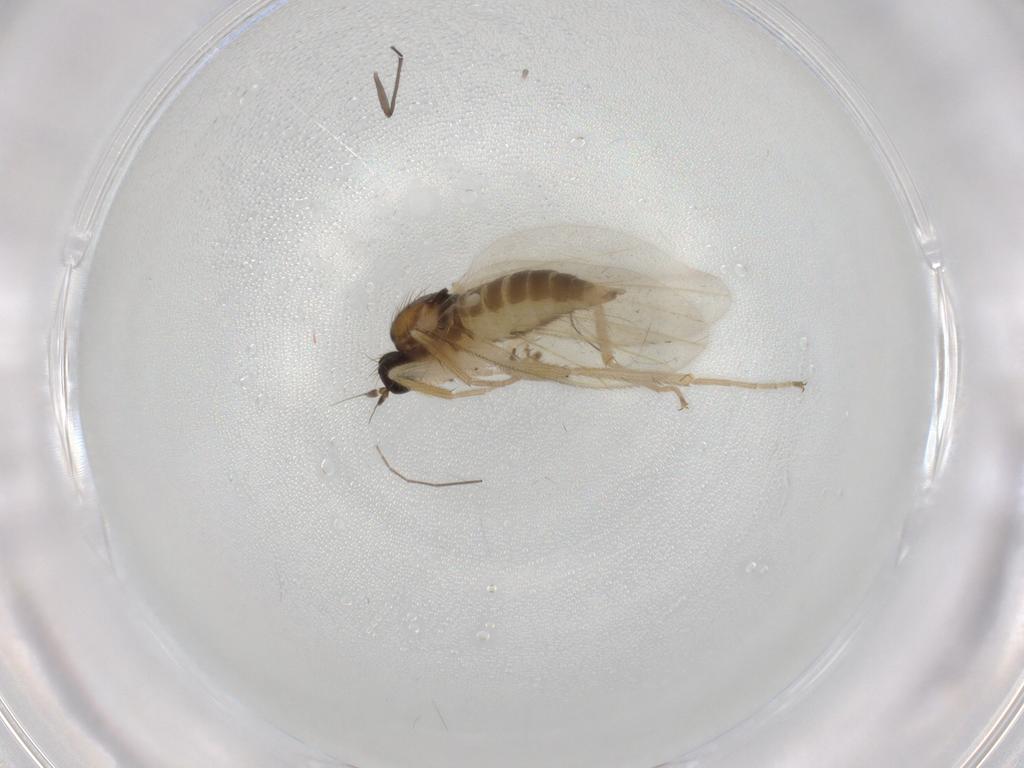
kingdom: Animalia
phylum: Arthropoda
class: Insecta
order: Diptera
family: Hybotidae
